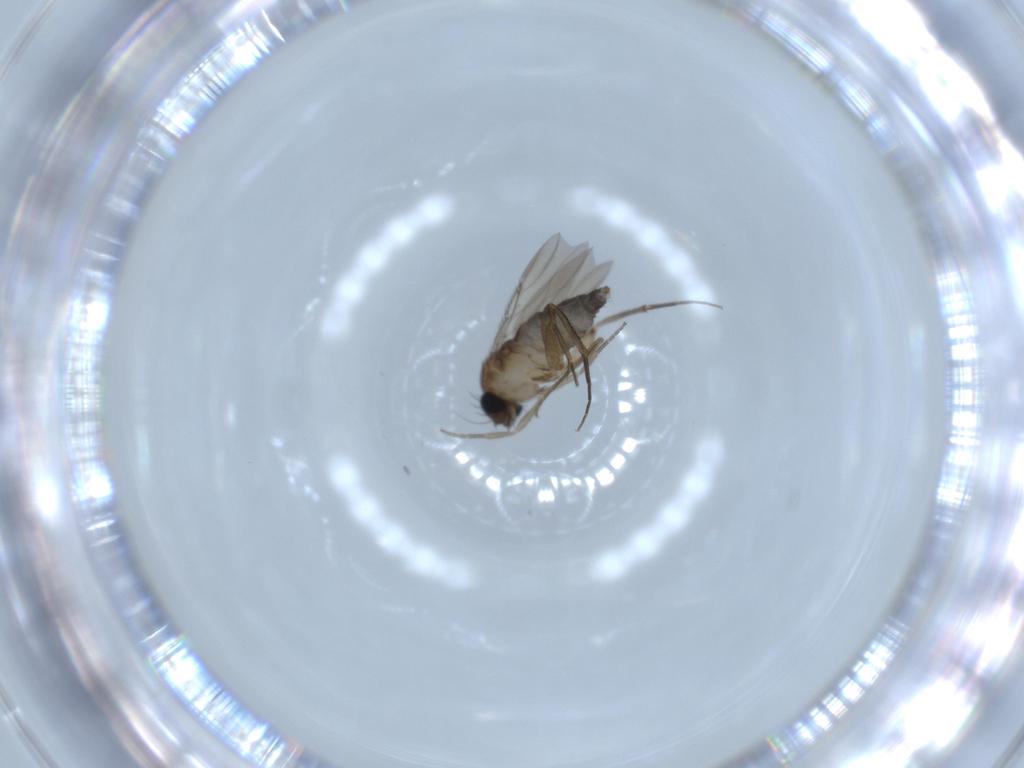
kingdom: Animalia
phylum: Arthropoda
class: Insecta
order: Diptera
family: Phoridae
